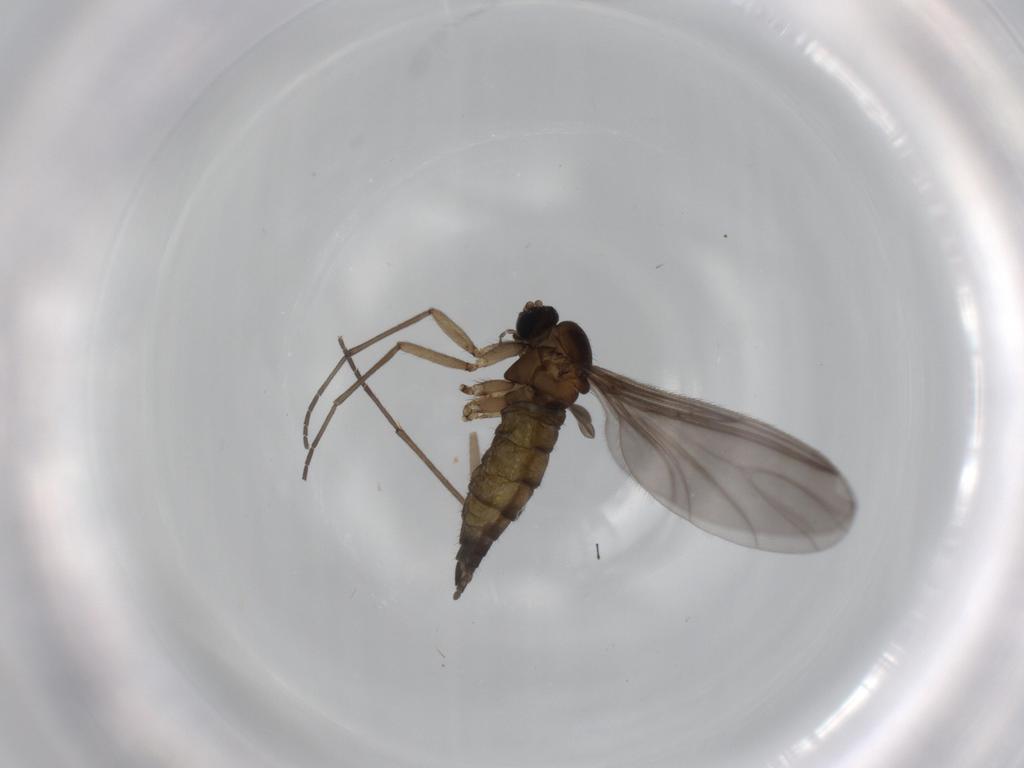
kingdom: Animalia
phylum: Arthropoda
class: Insecta
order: Diptera
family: Sciaridae
